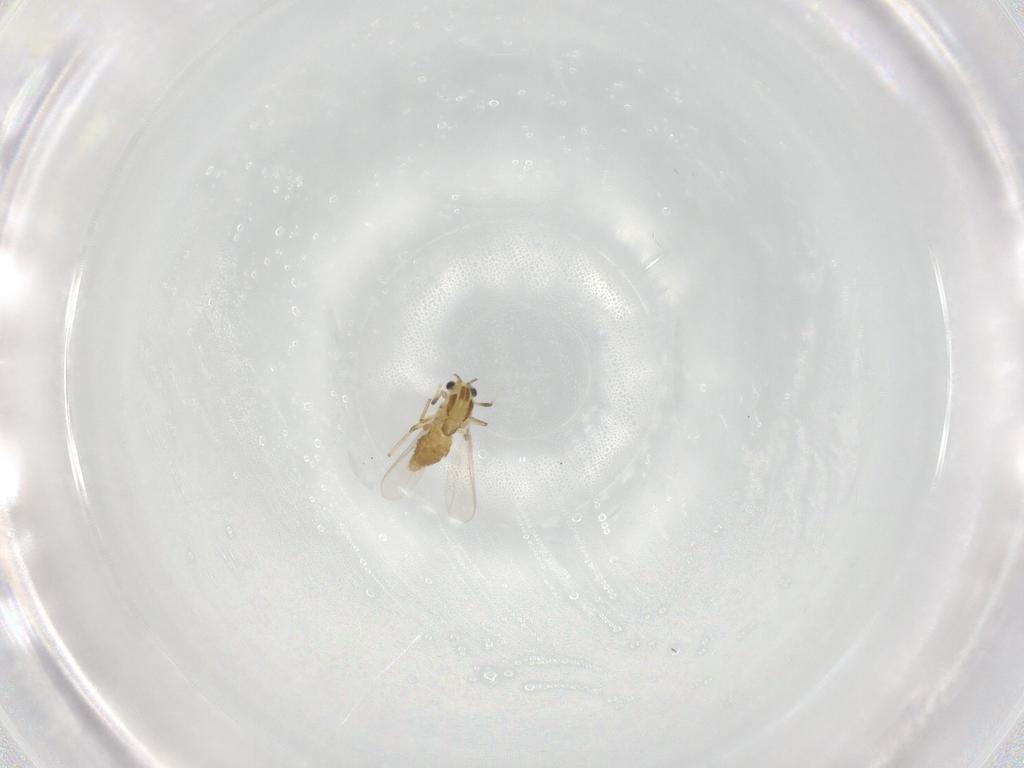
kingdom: Animalia
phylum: Arthropoda
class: Insecta
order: Diptera
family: Chironomidae
